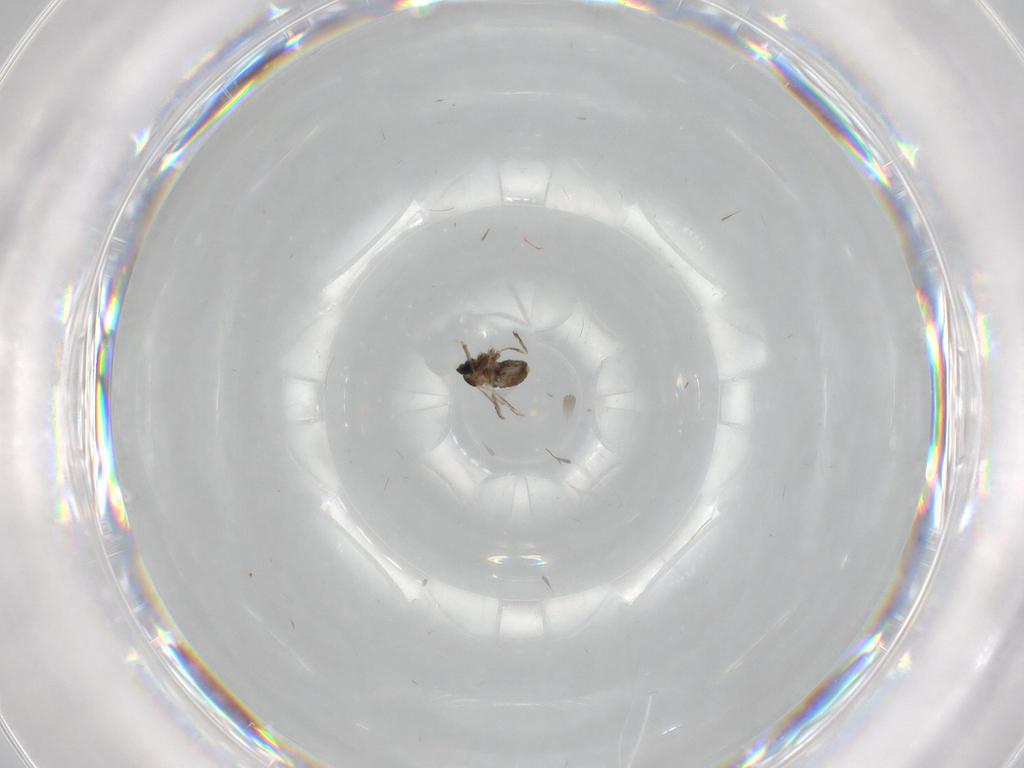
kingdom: Animalia
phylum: Arthropoda
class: Insecta
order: Diptera
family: Cecidomyiidae
